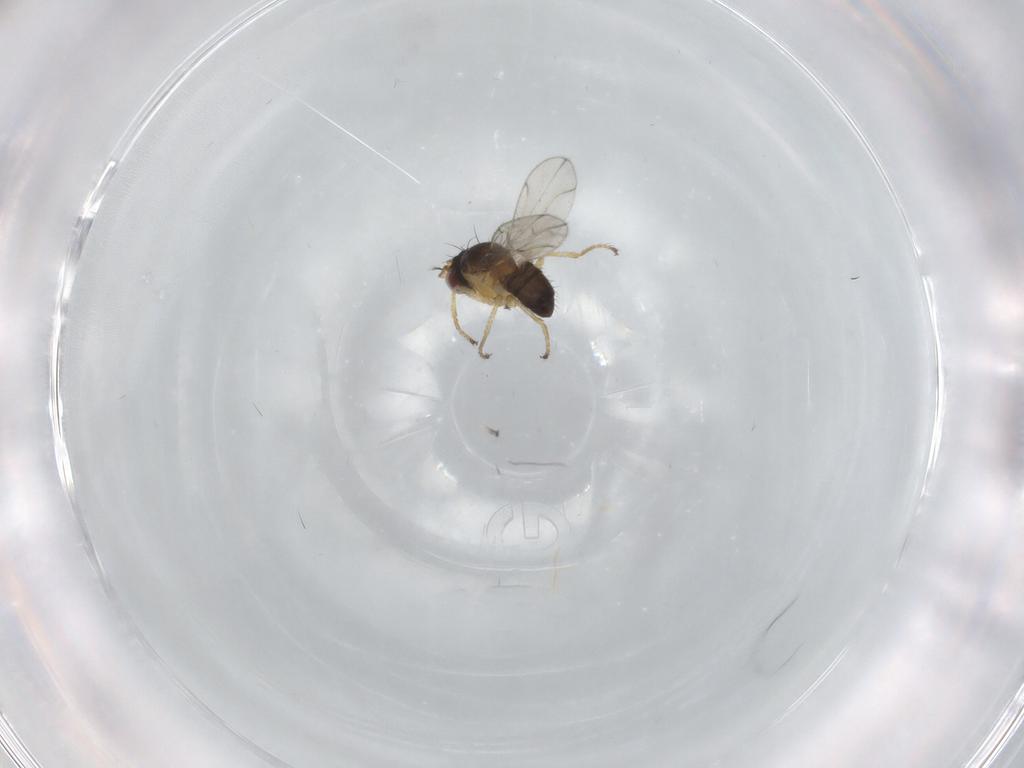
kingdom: Animalia
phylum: Arthropoda
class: Insecta
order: Diptera
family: Ephydridae
